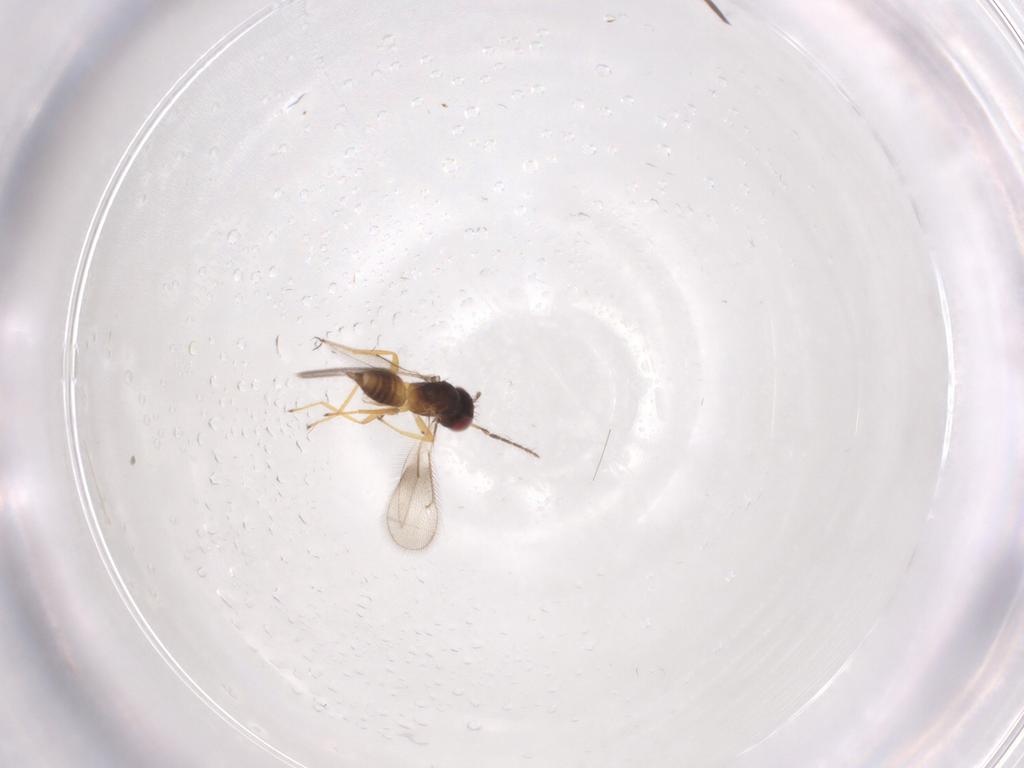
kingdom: Animalia
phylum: Arthropoda
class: Insecta
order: Hymenoptera
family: Eulophidae
